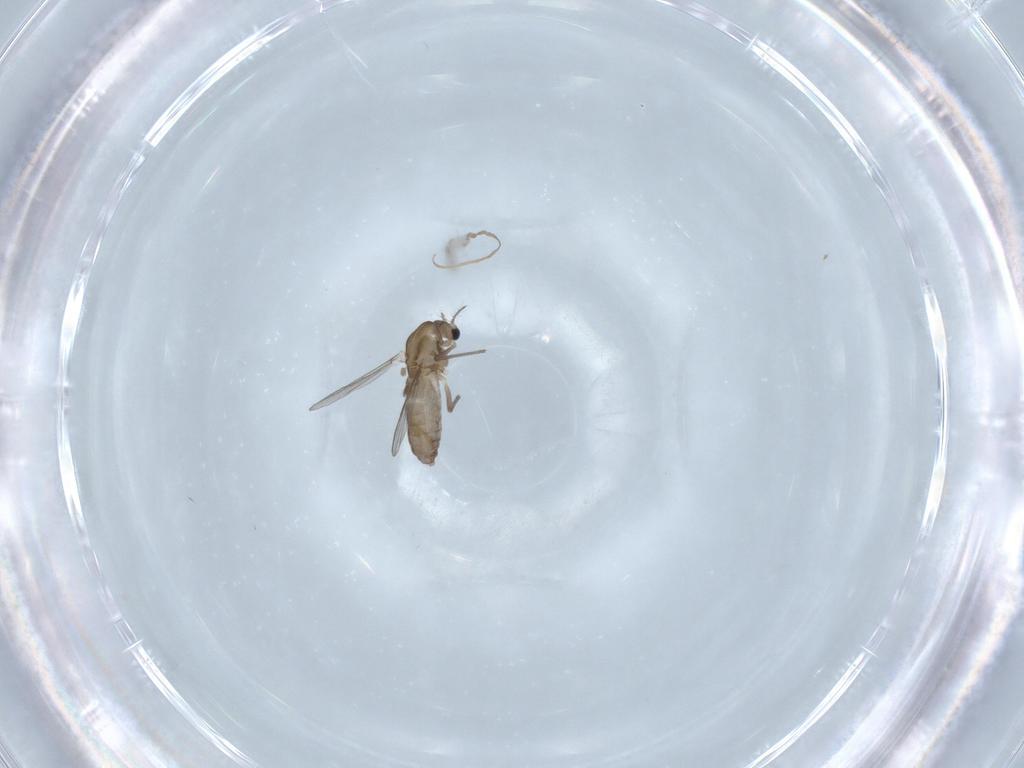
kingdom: Animalia
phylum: Arthropoda
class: Insecta
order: Diptera
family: Chironomidae
